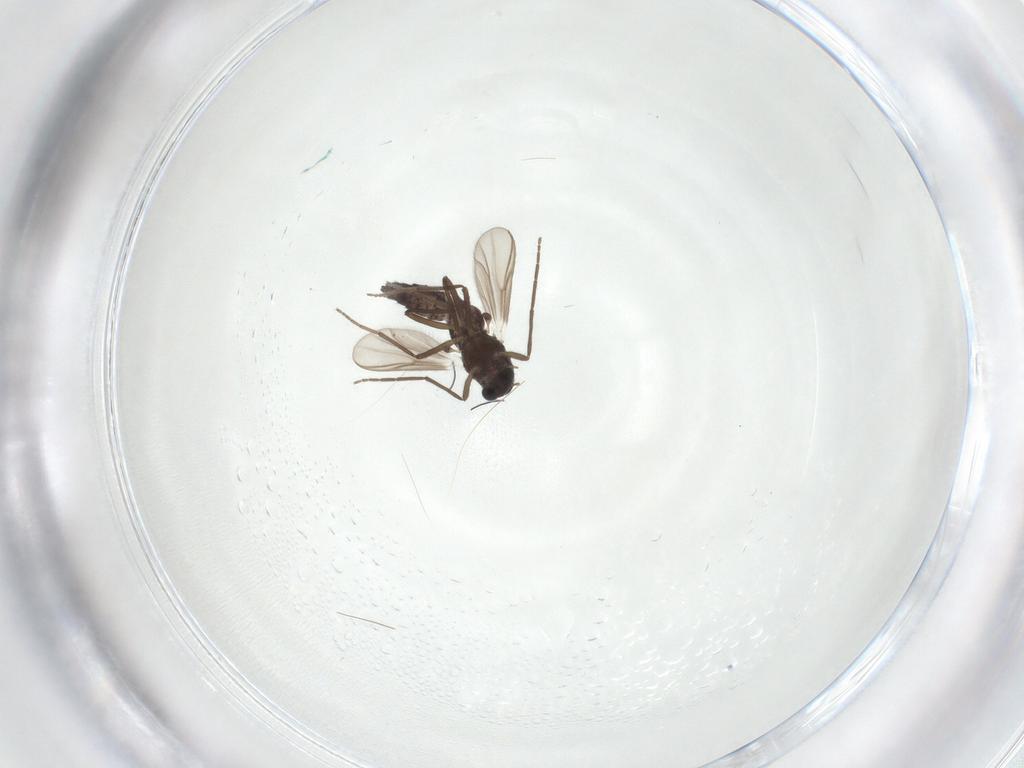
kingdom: Animalia
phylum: Arthropoda
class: Insecta
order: Diptera
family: Chironomidae
